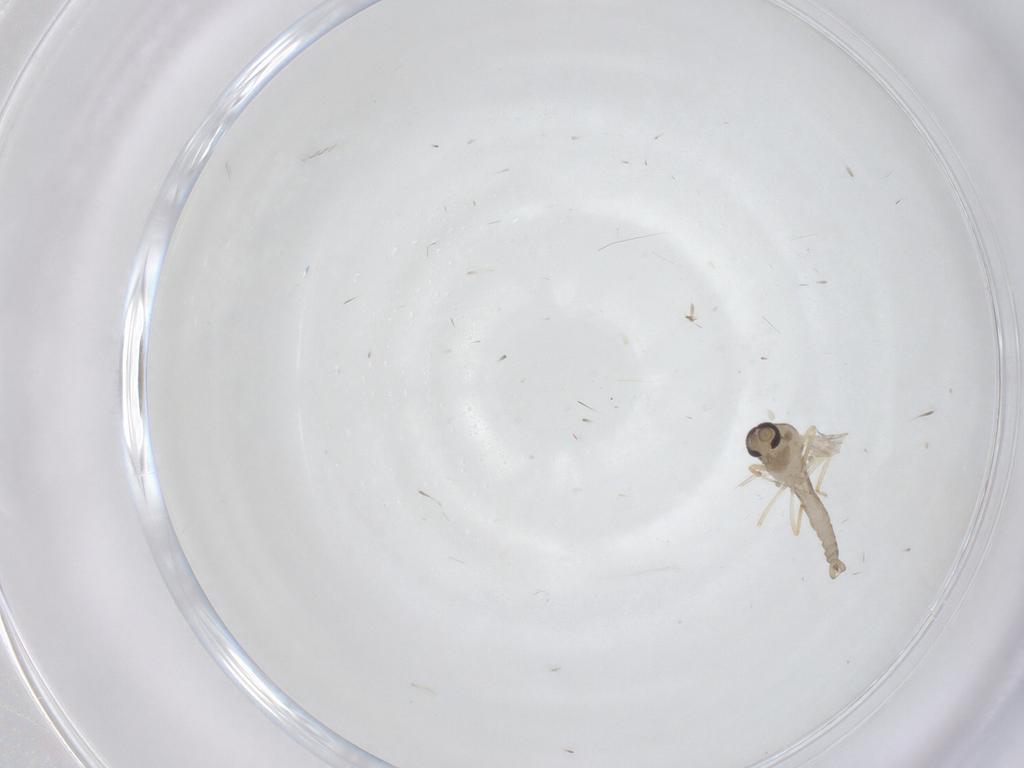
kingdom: Animalia
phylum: Arthropoda
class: Insecta
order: Diptera
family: Ceratopogonidae
